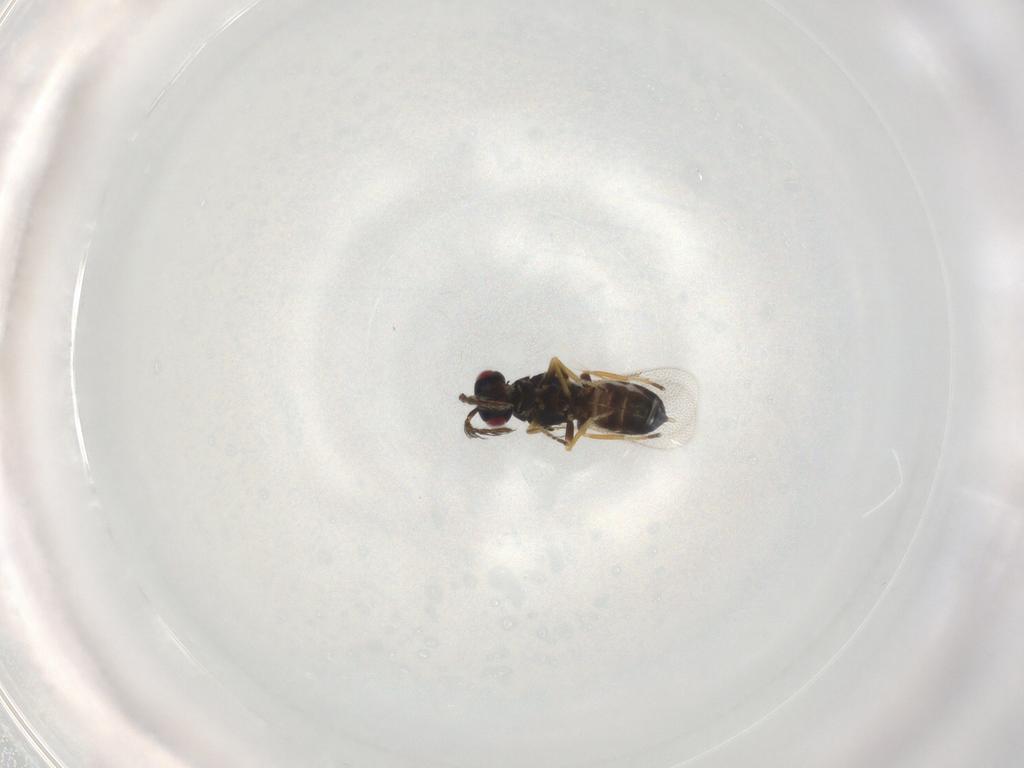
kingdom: Animalia
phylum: Arthropoda
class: Insecta
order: Hymenoptera
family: Eulophidae
